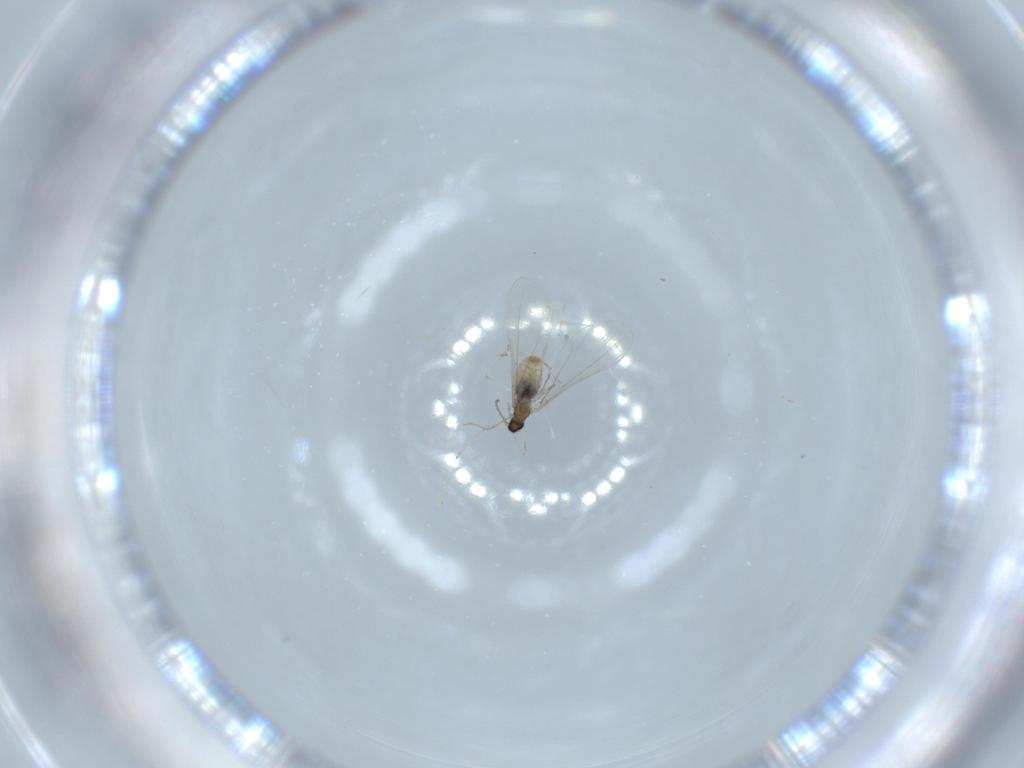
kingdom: Animalia
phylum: Arthropoda
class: Insecta
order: Diptera
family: Cecidomyiidae
